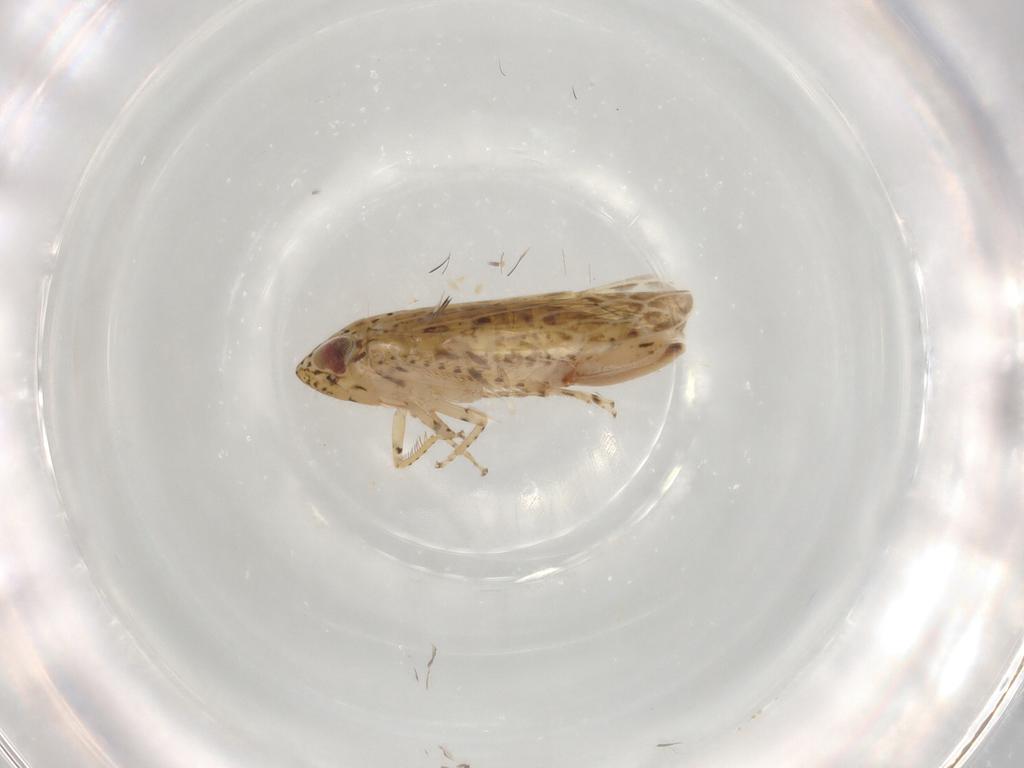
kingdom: Animalia
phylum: Arthropoda
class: Insecta
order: Hemiptera
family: Cicadellidae
